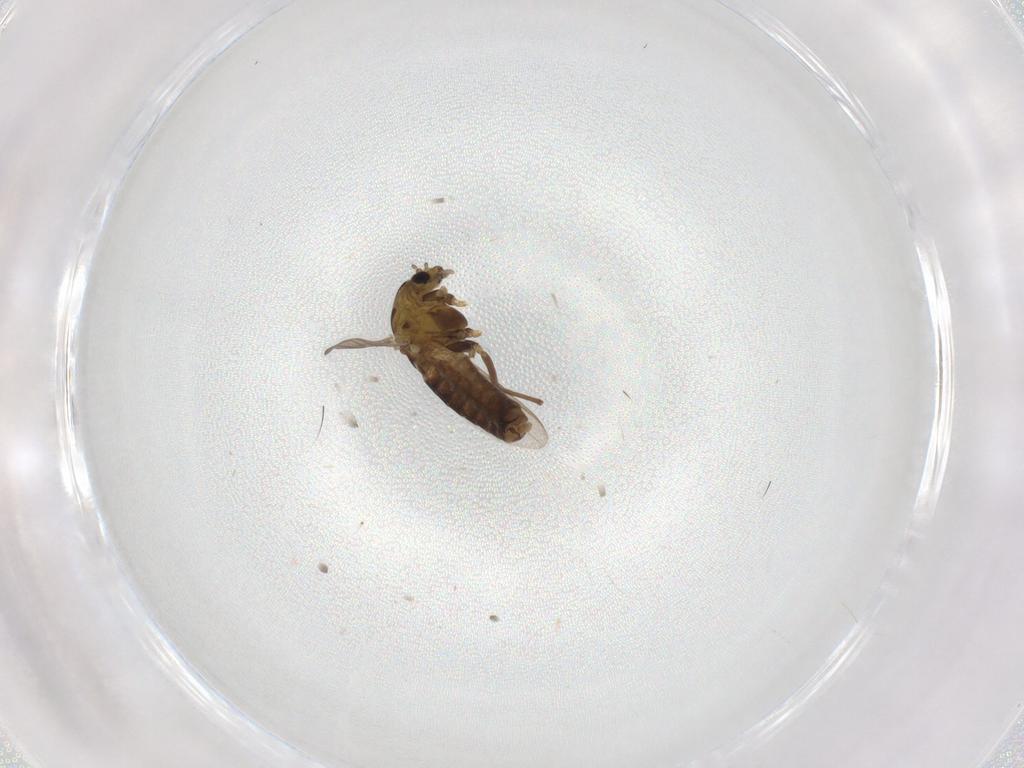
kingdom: Animalia
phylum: Arthropoda
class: Insecta
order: Diptera
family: Chironomidae
